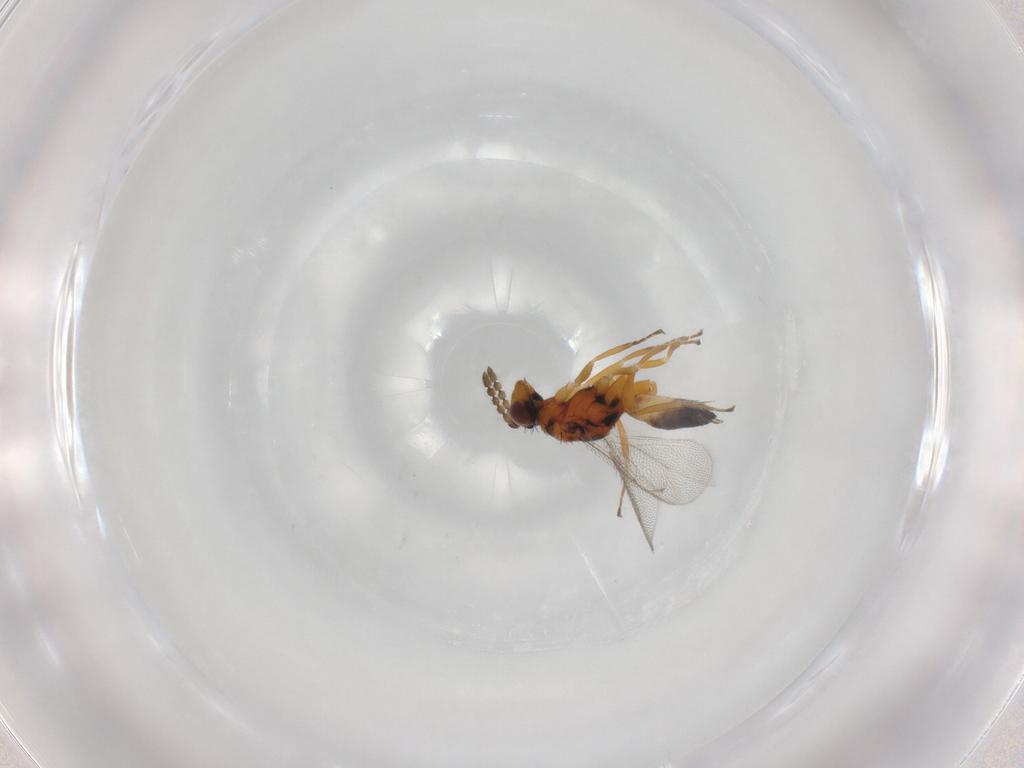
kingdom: Animalia
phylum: Arthropoda
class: Insecta
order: Hymenoptera
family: Eulophidae
